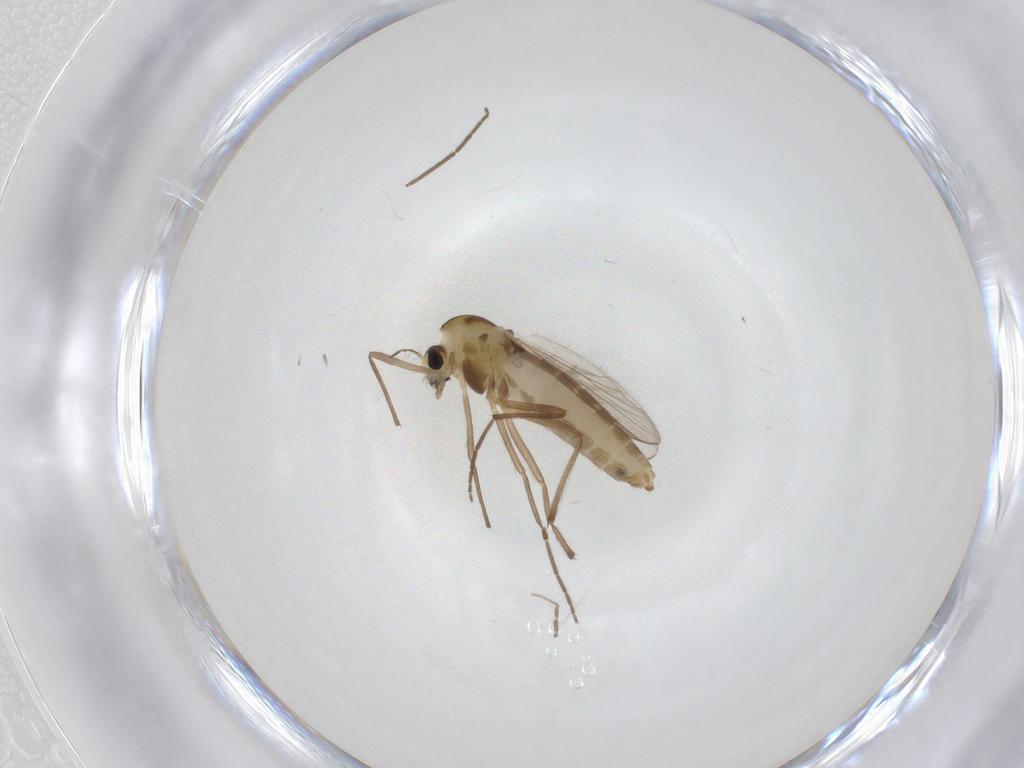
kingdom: Animalia
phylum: Arthropoda
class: Insecta
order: Diptera
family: Chironomidae
